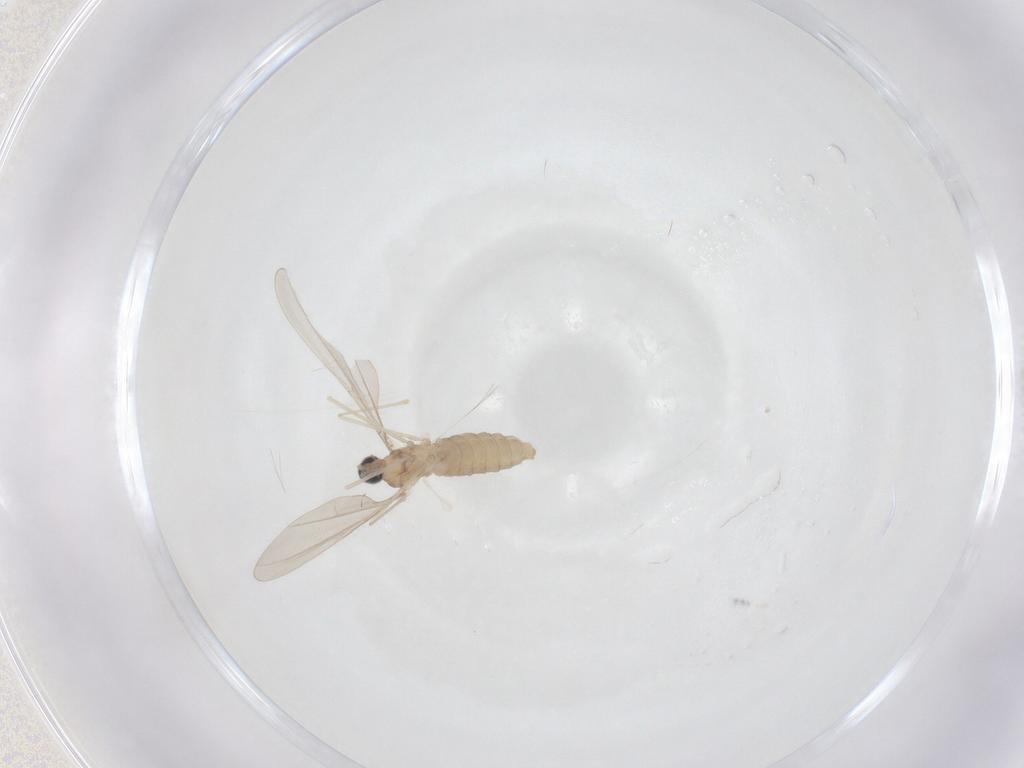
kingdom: Animalia
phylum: Arthropoda
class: Insecta
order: Diptera
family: Cecidomyiidae
